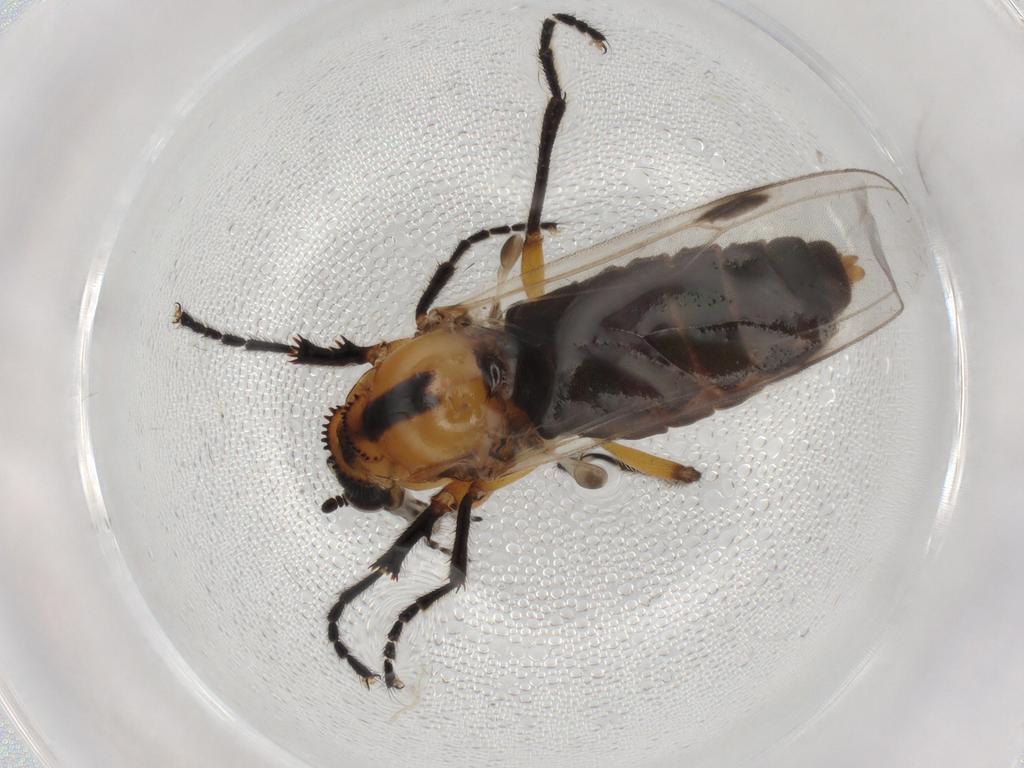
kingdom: Animalia
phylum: Arthropoda
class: Insecta
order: Diptera
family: Bibionidae
